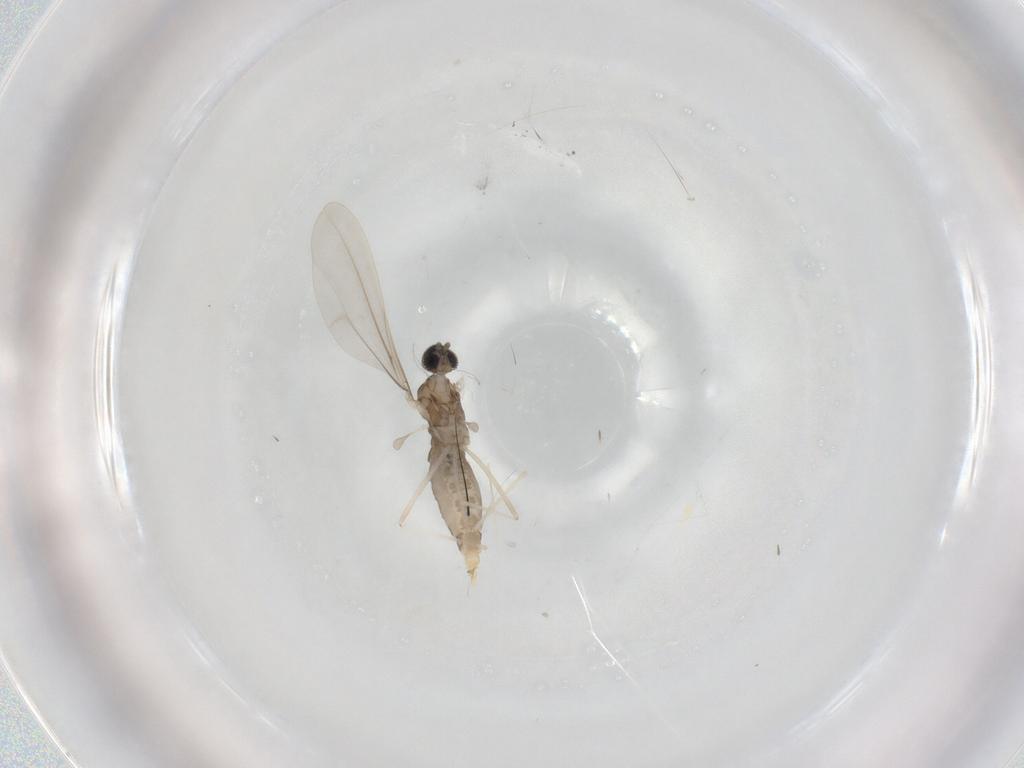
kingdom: Animalia
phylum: Arthropoda
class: Insecta
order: Diptera
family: Cecidomyiidae
